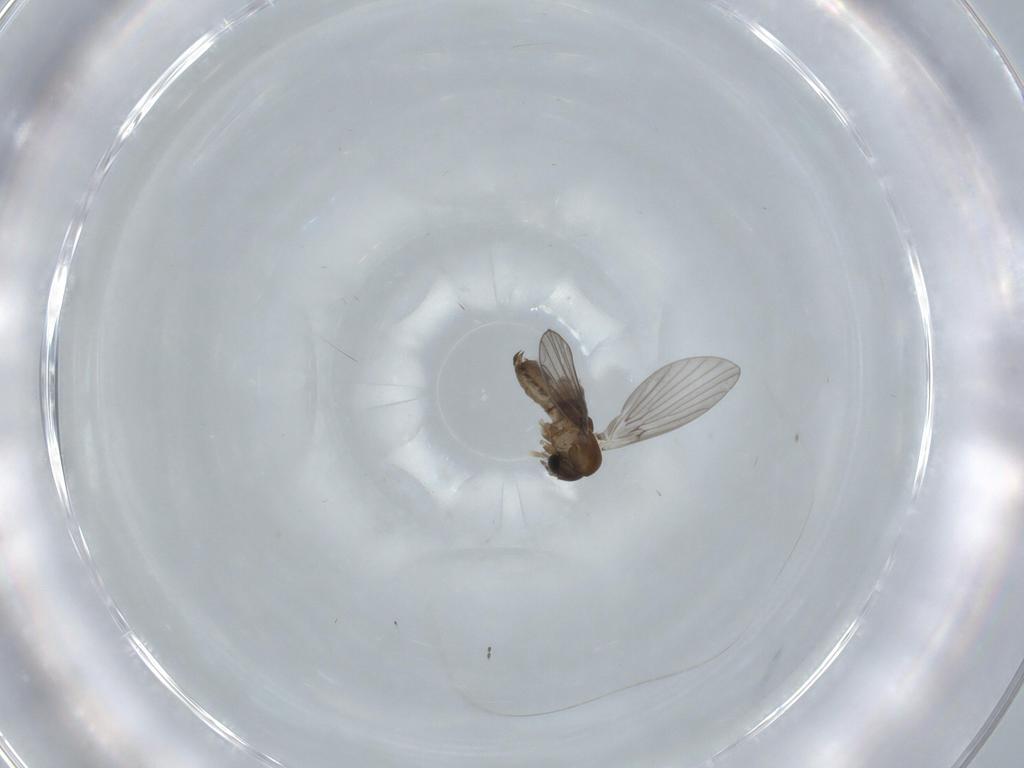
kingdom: Animalia
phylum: Arthropoda
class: Insecta
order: Diptera
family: Psychodidae
